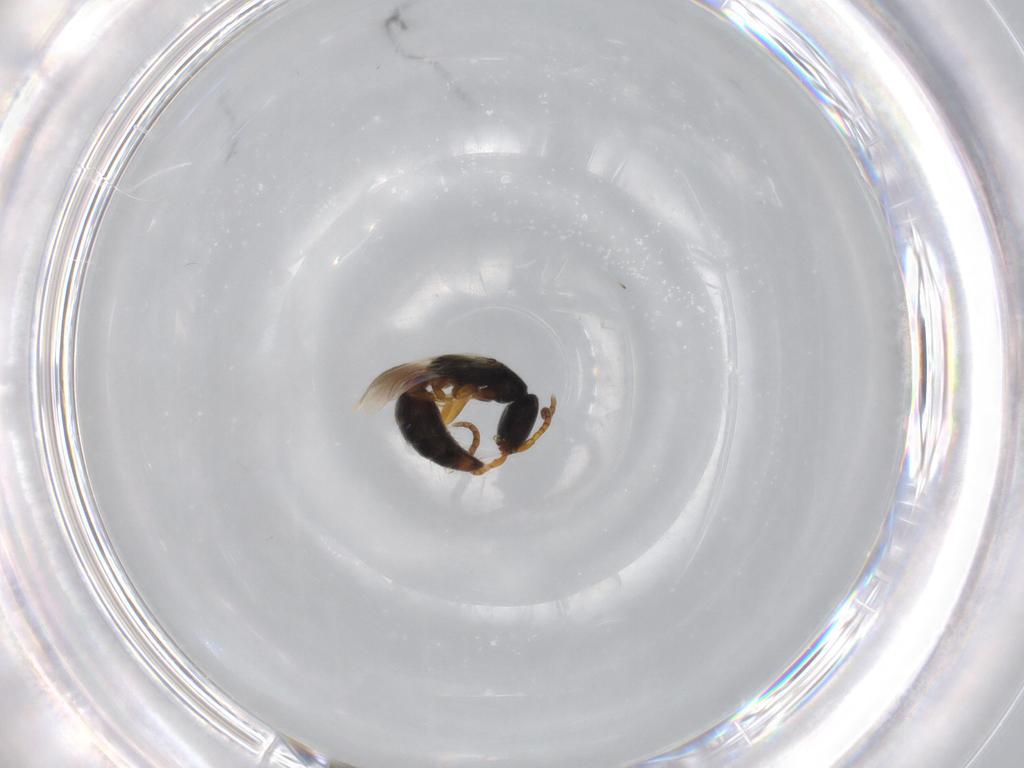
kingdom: Animalia
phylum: Arthropoda
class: Insecta
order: Hymenoptera
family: Bethylidae
